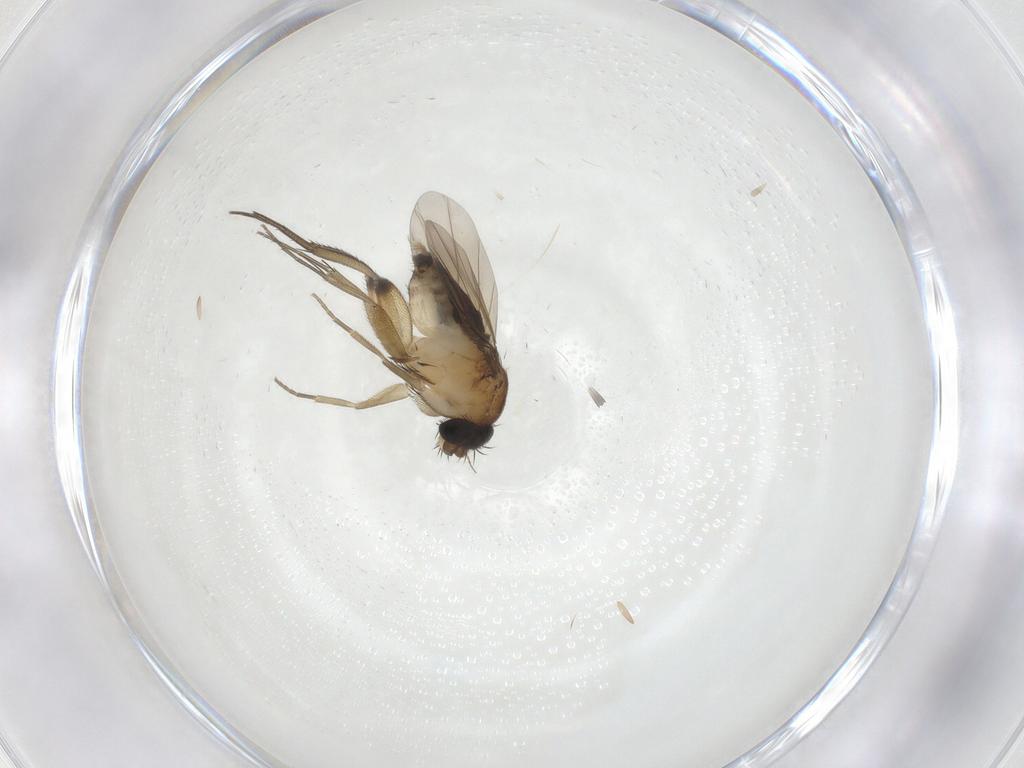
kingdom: Animalia
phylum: Arthropoda
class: Insecta
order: Diptera
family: Phoridae
